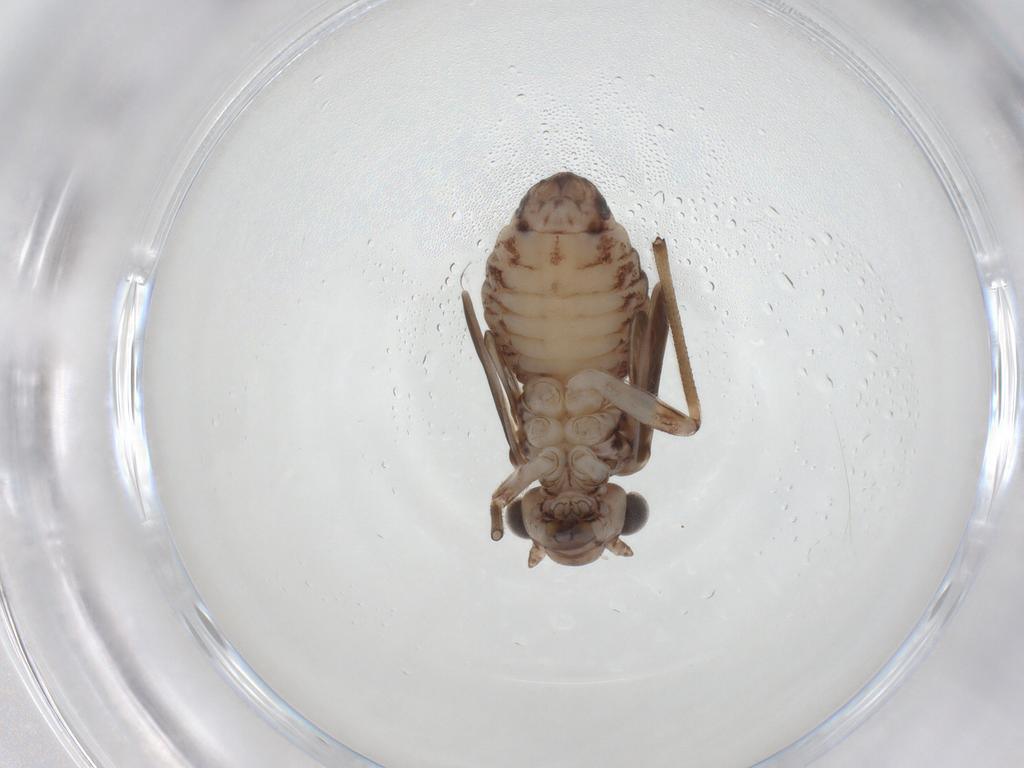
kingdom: Animalia
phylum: Arthropoda
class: Insecta
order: Psocodea
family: Psocidae
